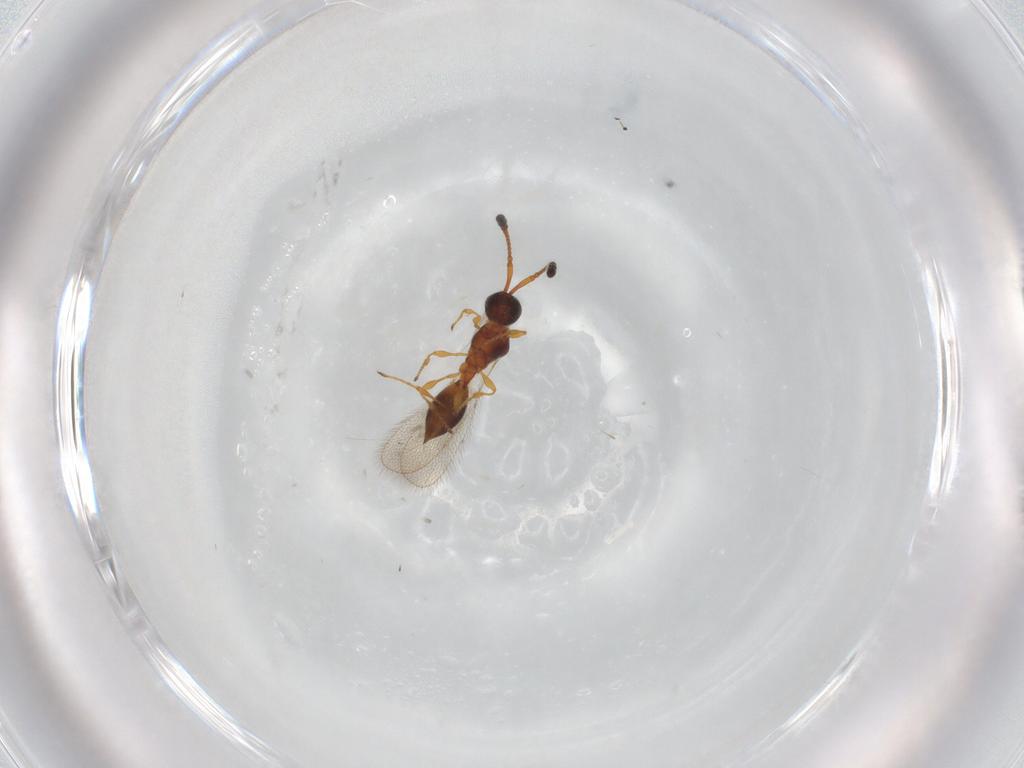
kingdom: Animalia
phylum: Arthropoda
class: Insecta
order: Hymenoptera
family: Diapriidae
